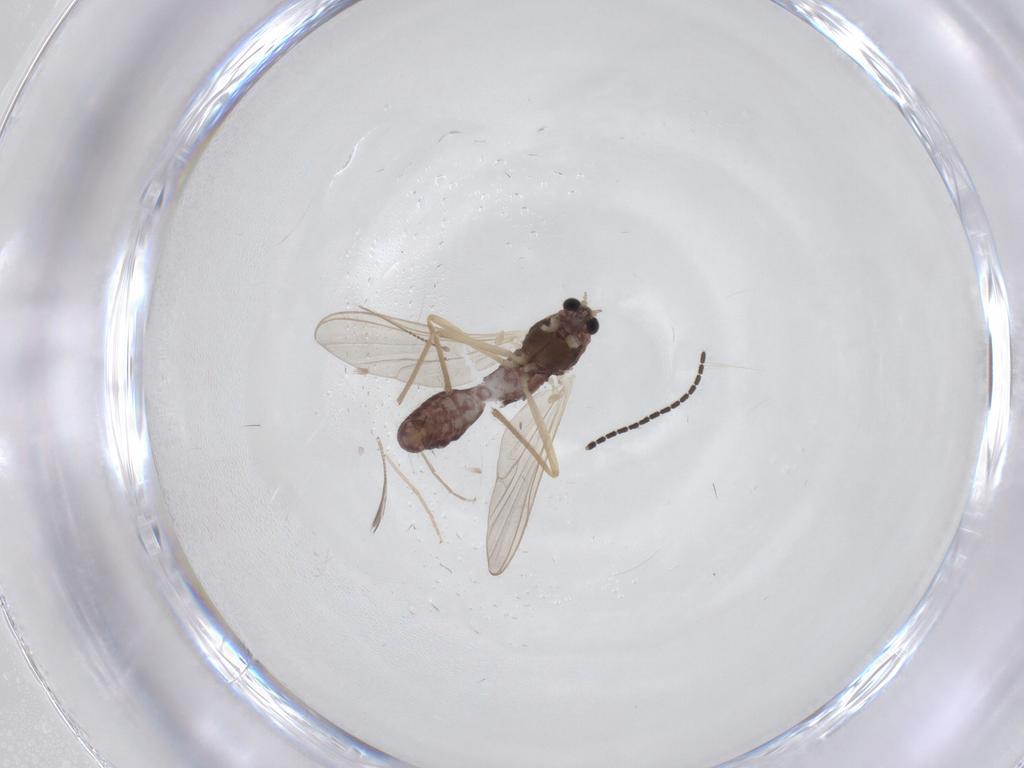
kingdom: Animalia
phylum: Arthropoda
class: Insecta
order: Diptera
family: Chironomidae
